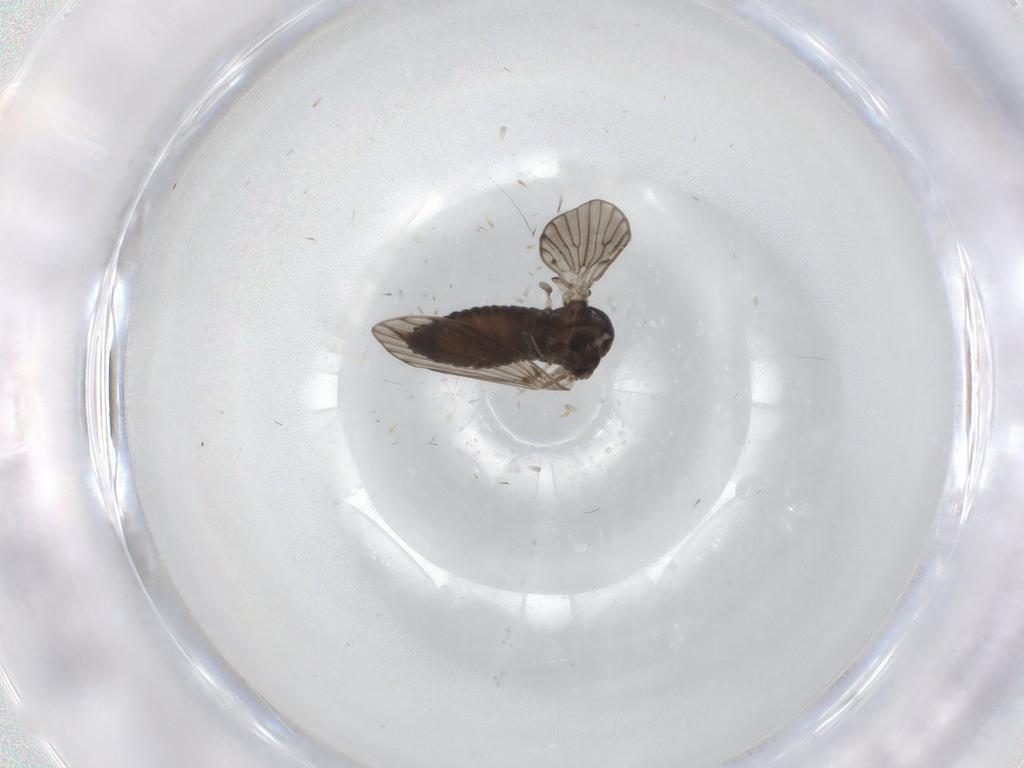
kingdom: Animalia
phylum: Arthropoda
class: Insecta
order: Diptera
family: Psychodidae
